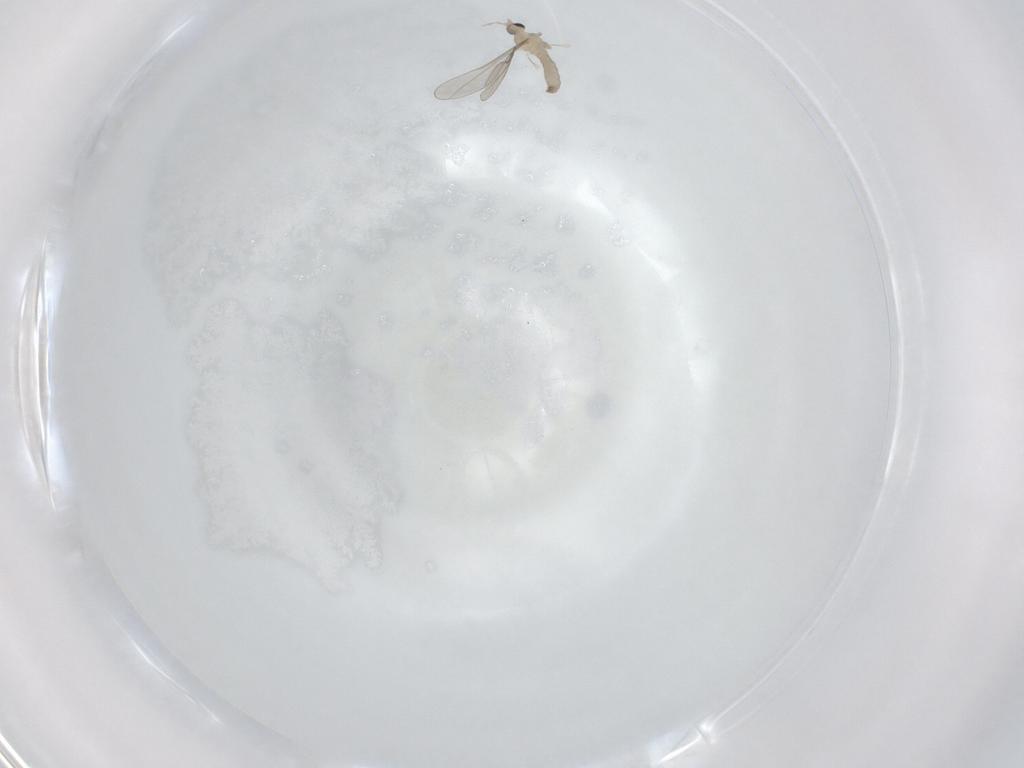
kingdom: Animalia
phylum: Arthropoda
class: Insecta
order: Diptera
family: Cecidomyiidae
